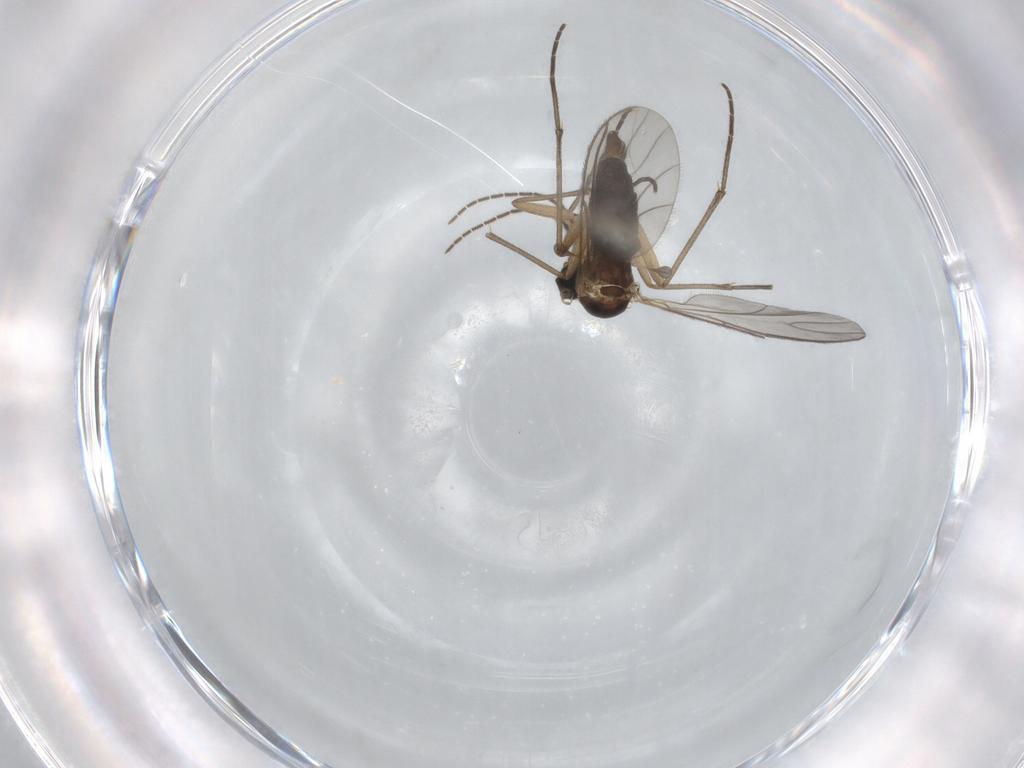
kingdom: Animalia
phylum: Arthropoda
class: Insecta
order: Diptera
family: Sciaridae
